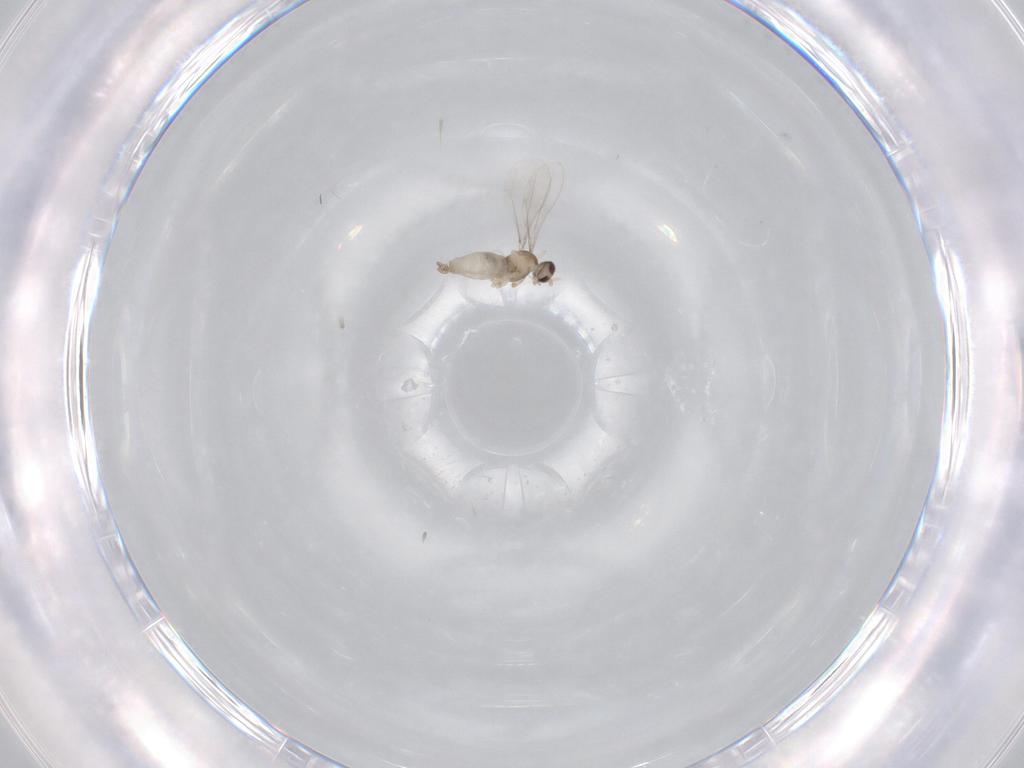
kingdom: Animalia
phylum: Arthropoda
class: Insecta
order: Diptera
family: Cecidomyiidae
